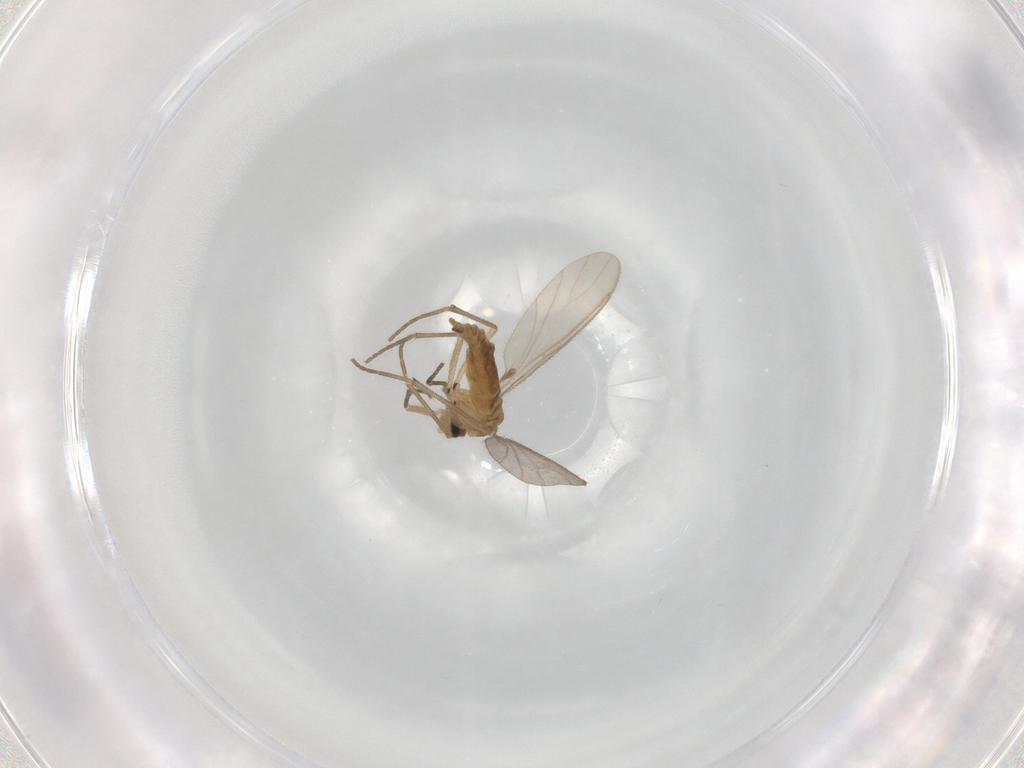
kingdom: Animalia
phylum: Arthropoda
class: Insecta
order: Diptera
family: Sciaridae
